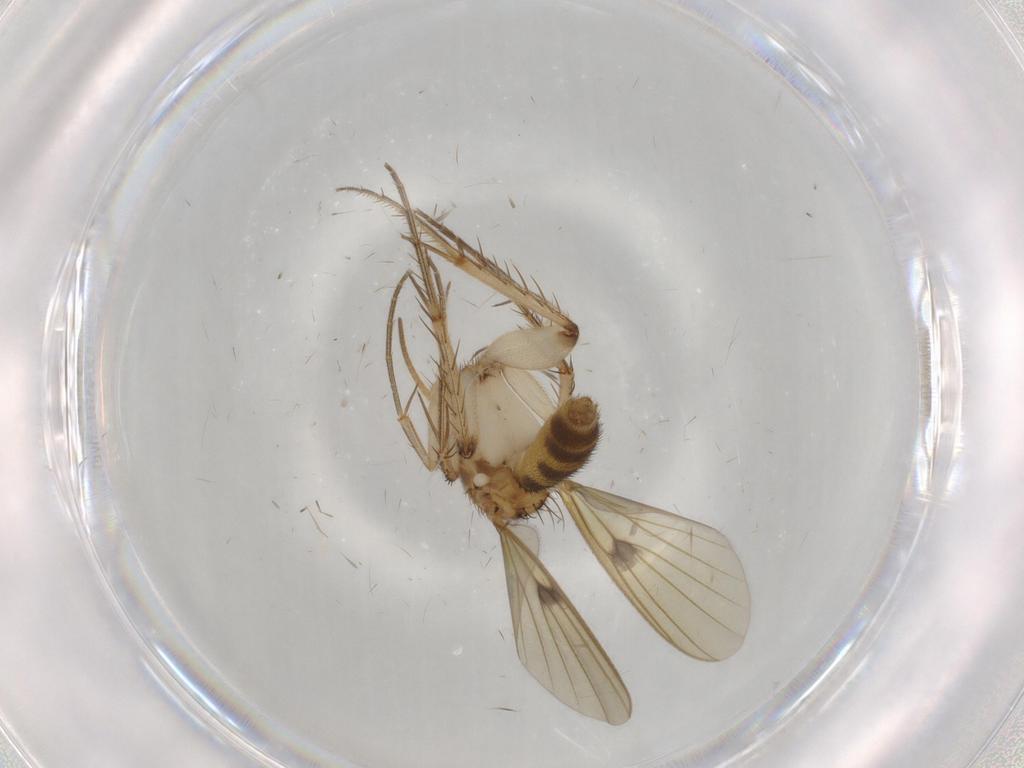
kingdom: Animalia
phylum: Arthropoda
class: Insecta
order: Diptera
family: Mycetophilidae
